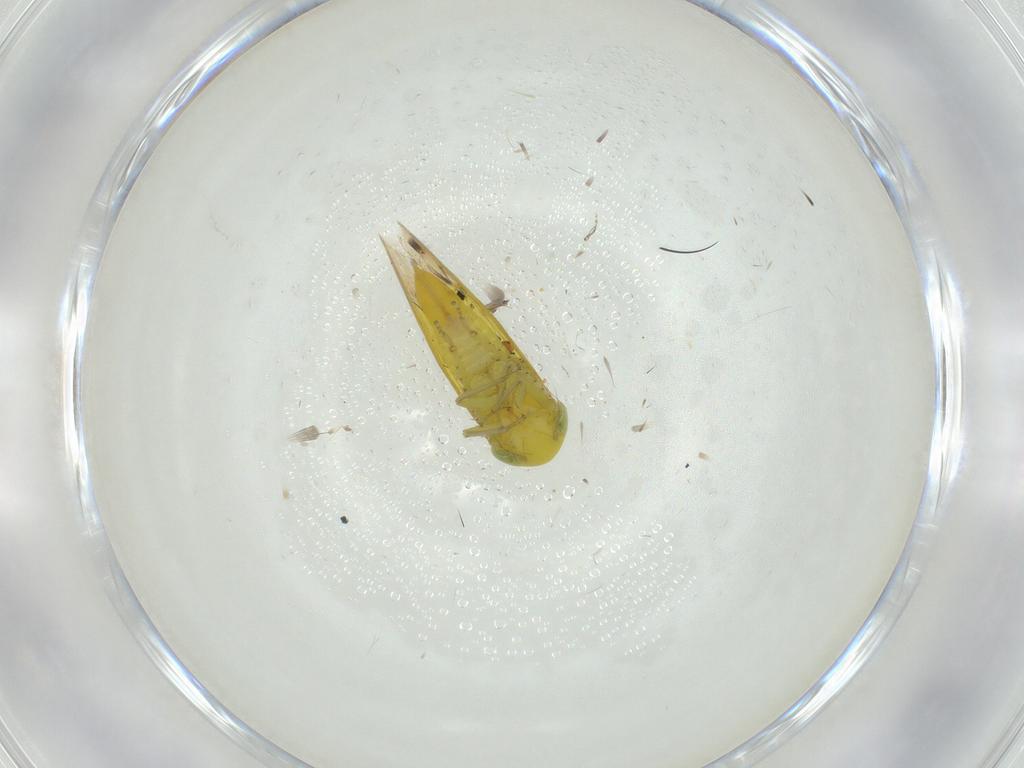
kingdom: Animalia
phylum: Arthropoda
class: Insecta
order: Hemiptera
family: Cicadellidae
